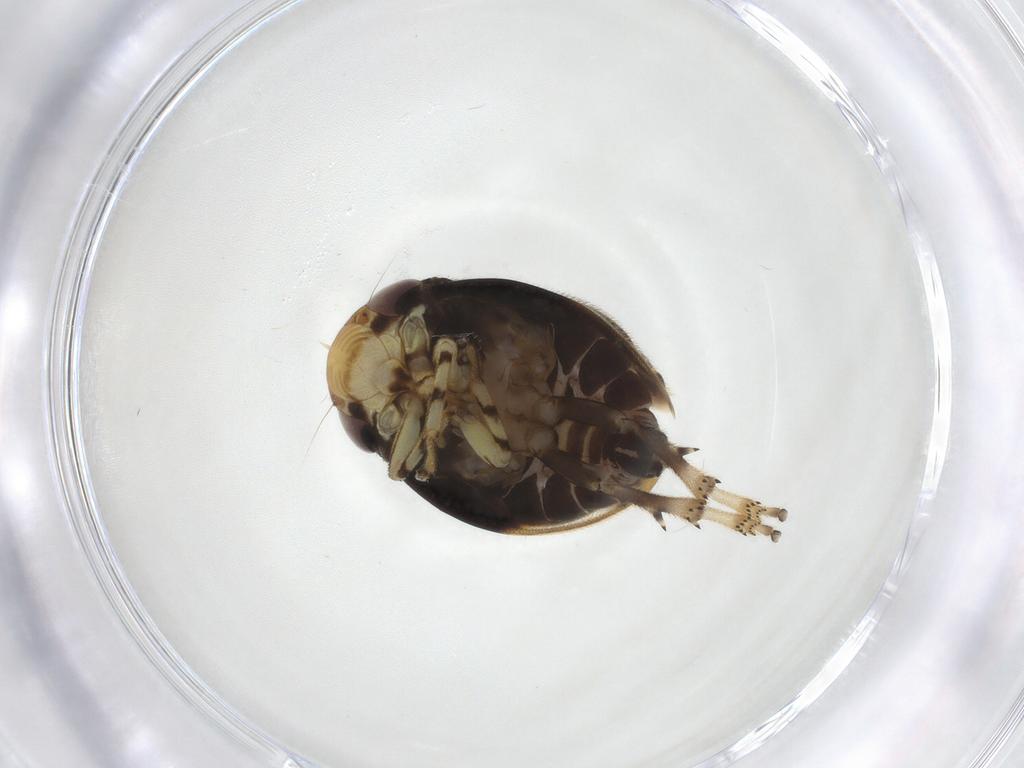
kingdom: Animalia
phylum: Arthropoda
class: Insecta
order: Hemiptera
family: Clastopteridae
